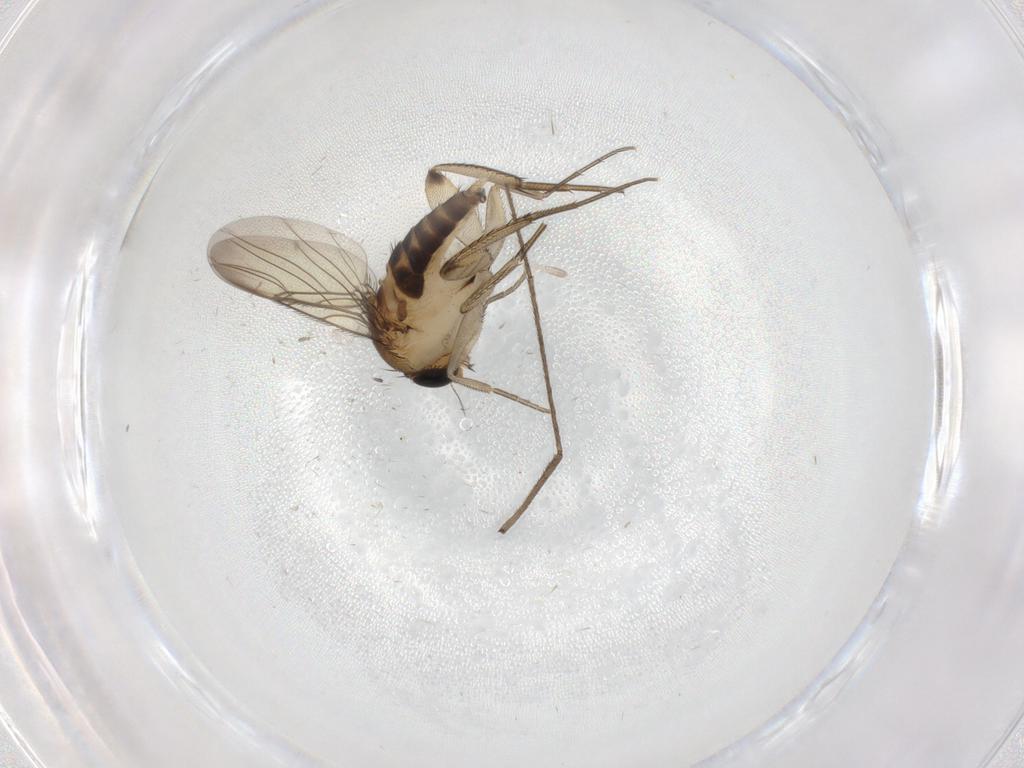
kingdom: Animalia
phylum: Arthropoda
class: Insecta
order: Diptera
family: Phoridae
